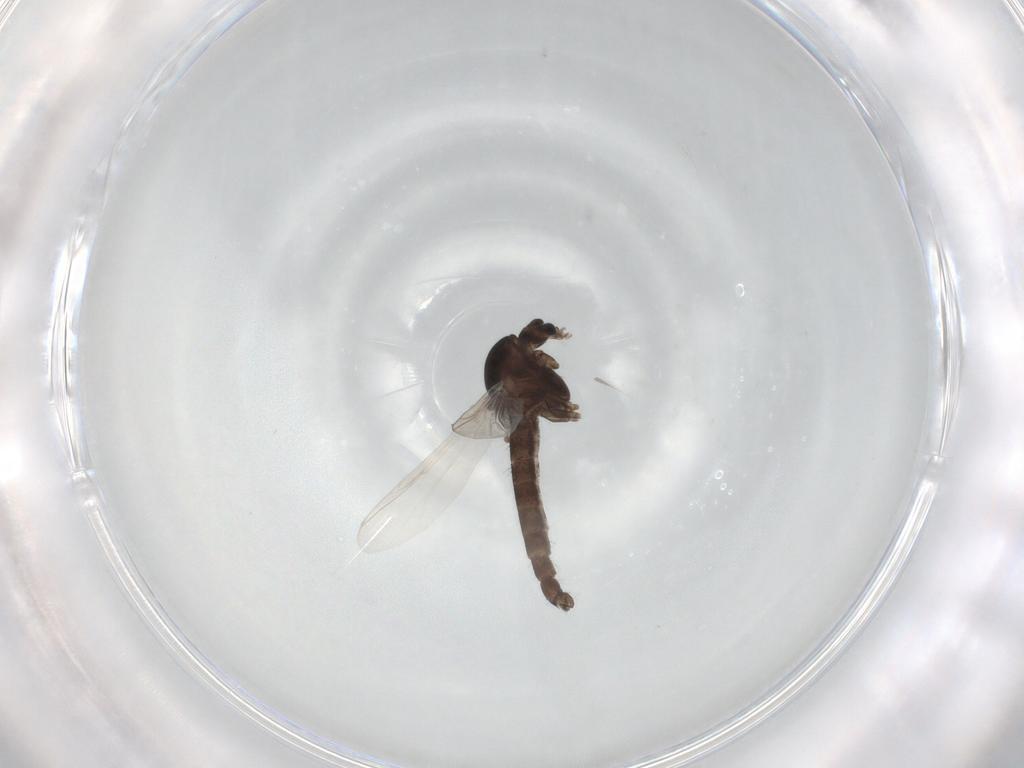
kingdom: Animalia
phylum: Arthropoda
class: Insecta
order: Diptera
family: Chironomidae
